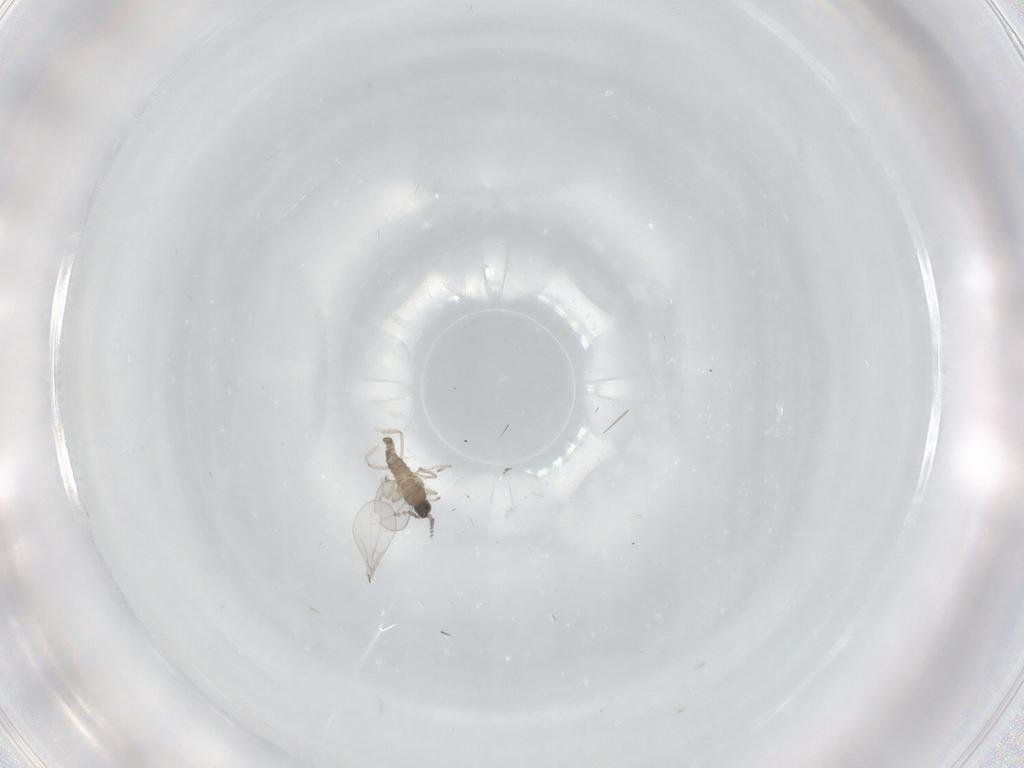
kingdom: Animalia
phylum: Arthropoda
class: Insecta
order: Diptera
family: Cecidomyiidae
